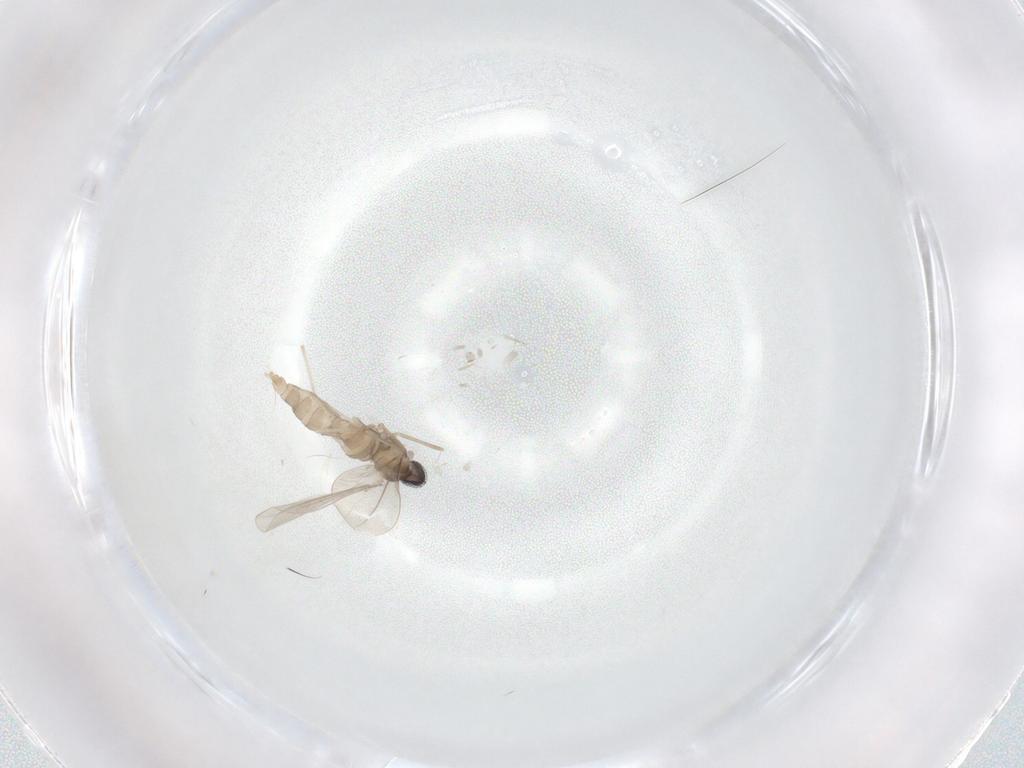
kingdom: Animalia
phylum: Arthropoda
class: Insecta
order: Diptera
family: Cecidomyiidae
